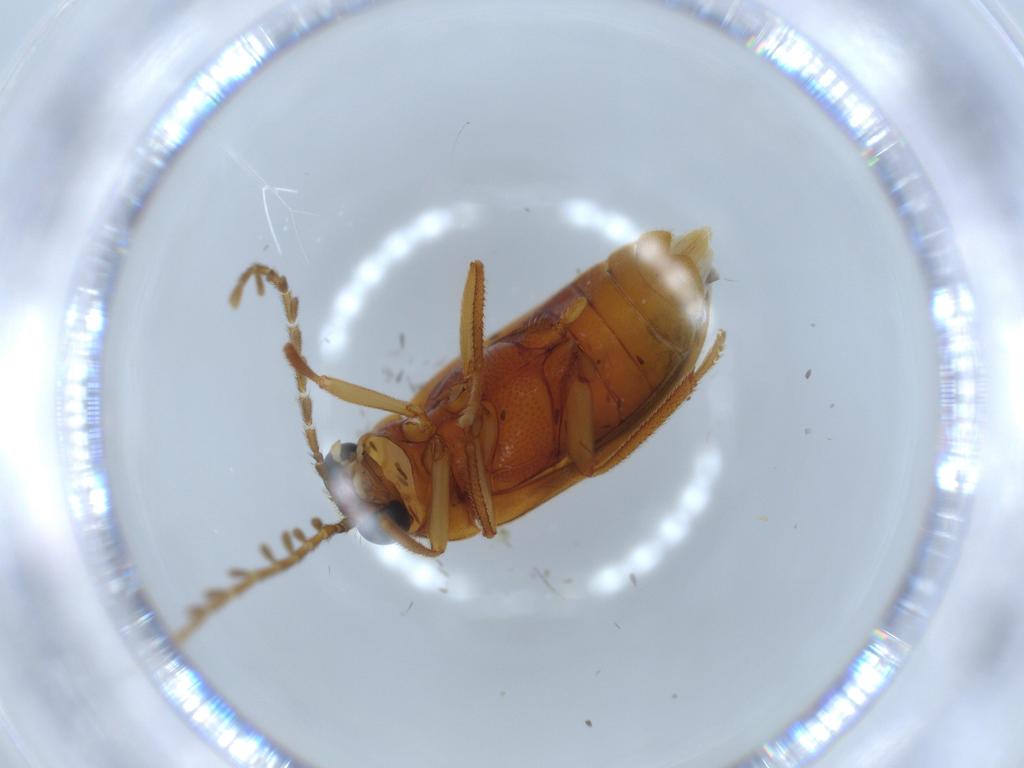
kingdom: Animalia
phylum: Arthropoda
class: Insecta
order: Coleoptera
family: Ptilodactylidae
